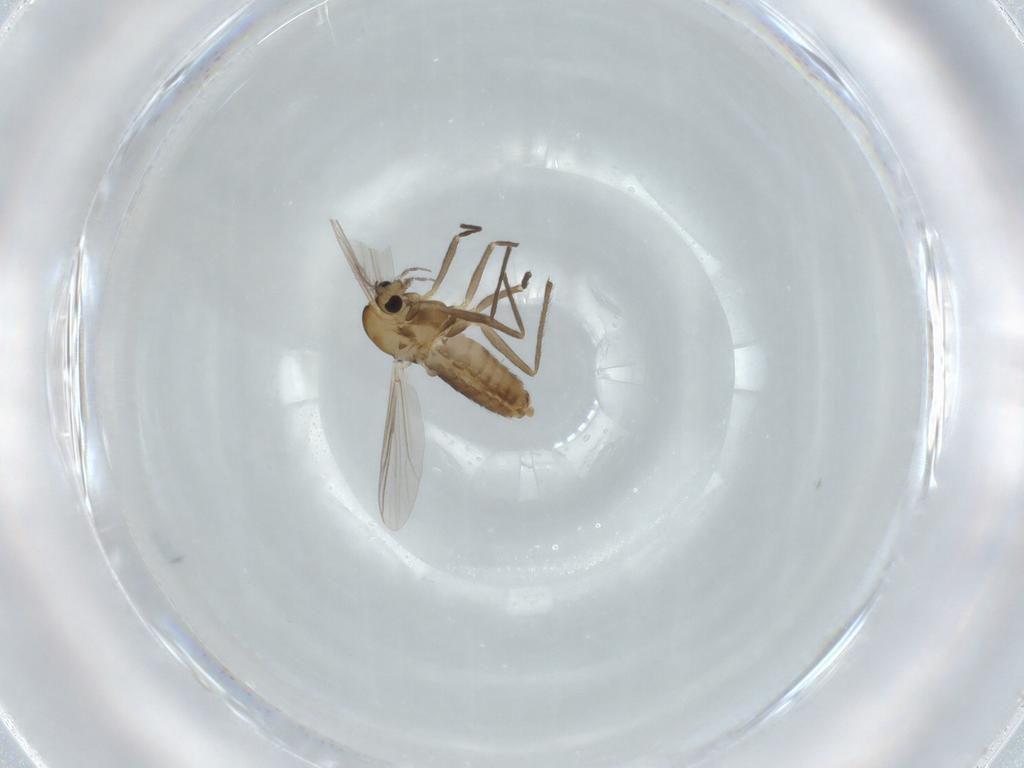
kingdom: Animalia
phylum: Arthropoda
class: Insecta
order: Diptera
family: Chironomidae
